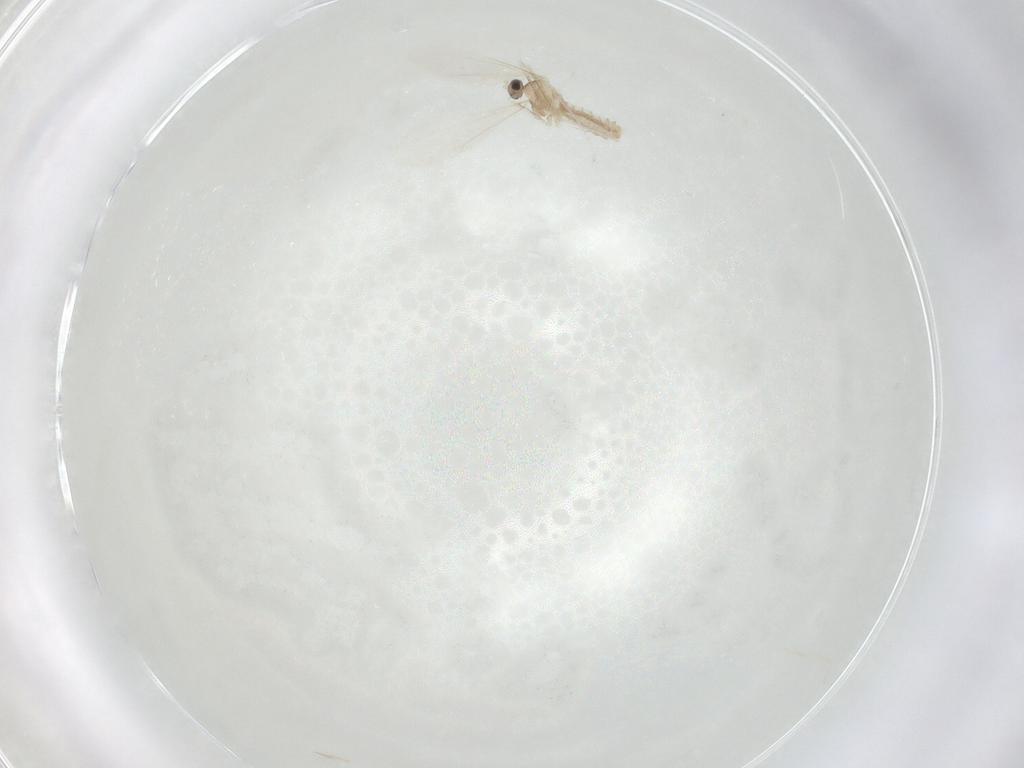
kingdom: Animalia
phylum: Arthropoda
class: Insecta
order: Diptera
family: Cecidomyiidae
